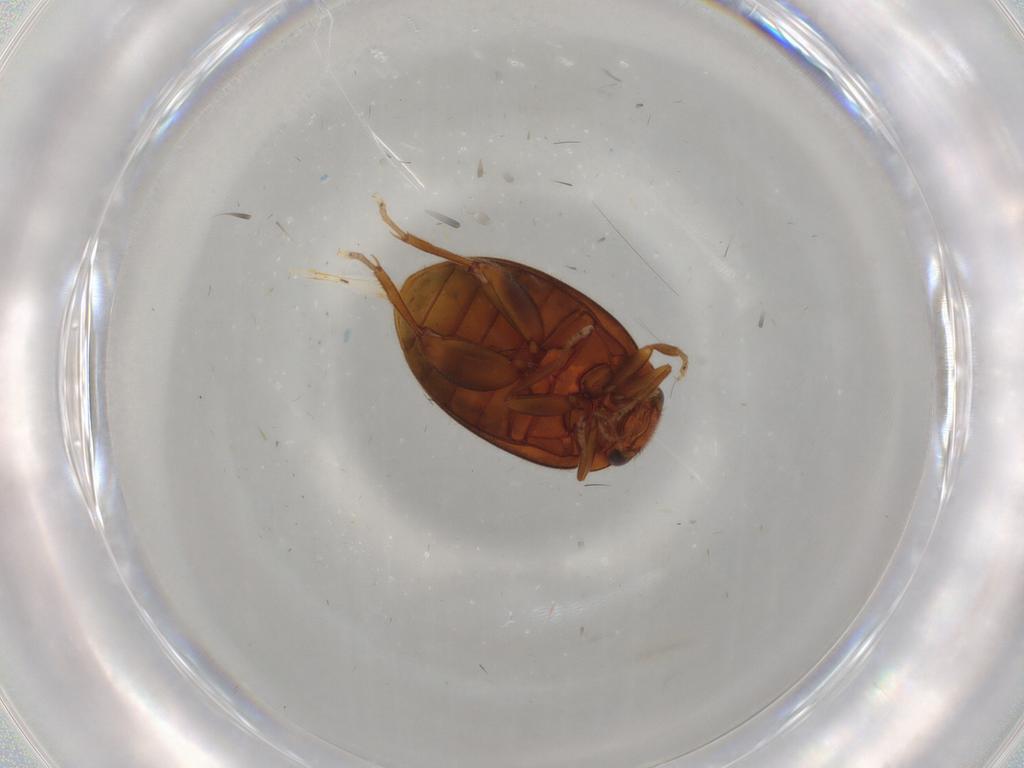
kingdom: Animalia
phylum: Arthropoda
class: Insecta
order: Coleoptera
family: Scirtidae
